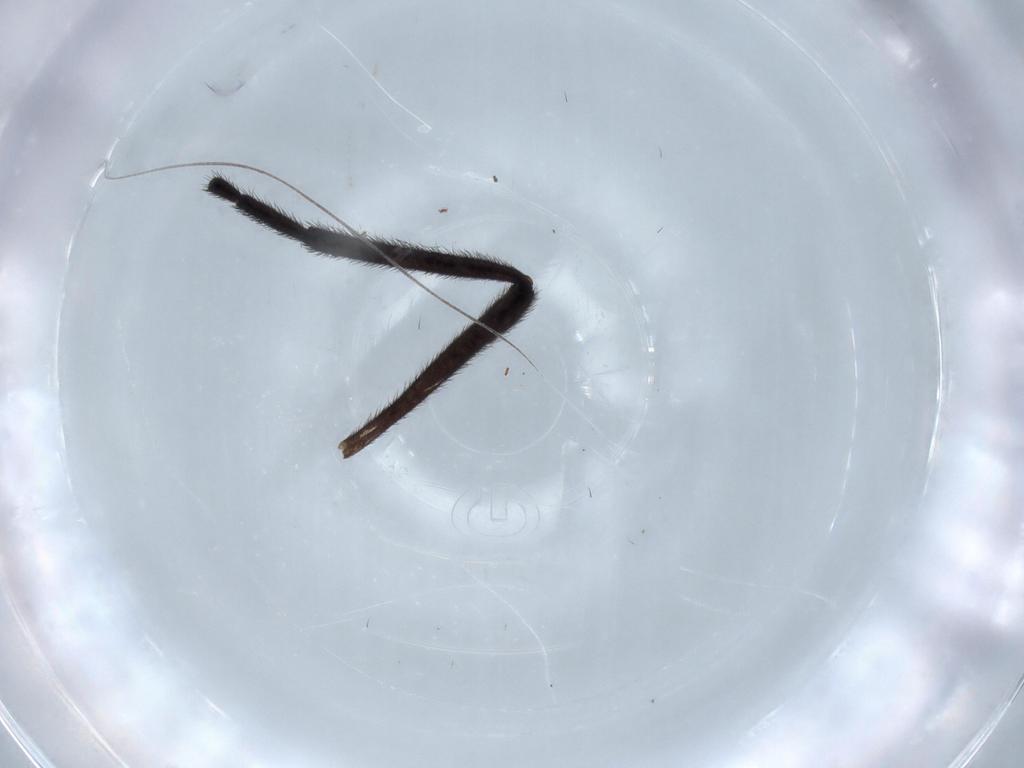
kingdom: Animalia
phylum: Arthropoda
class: Insecta
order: Diptera
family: Bibionidae
